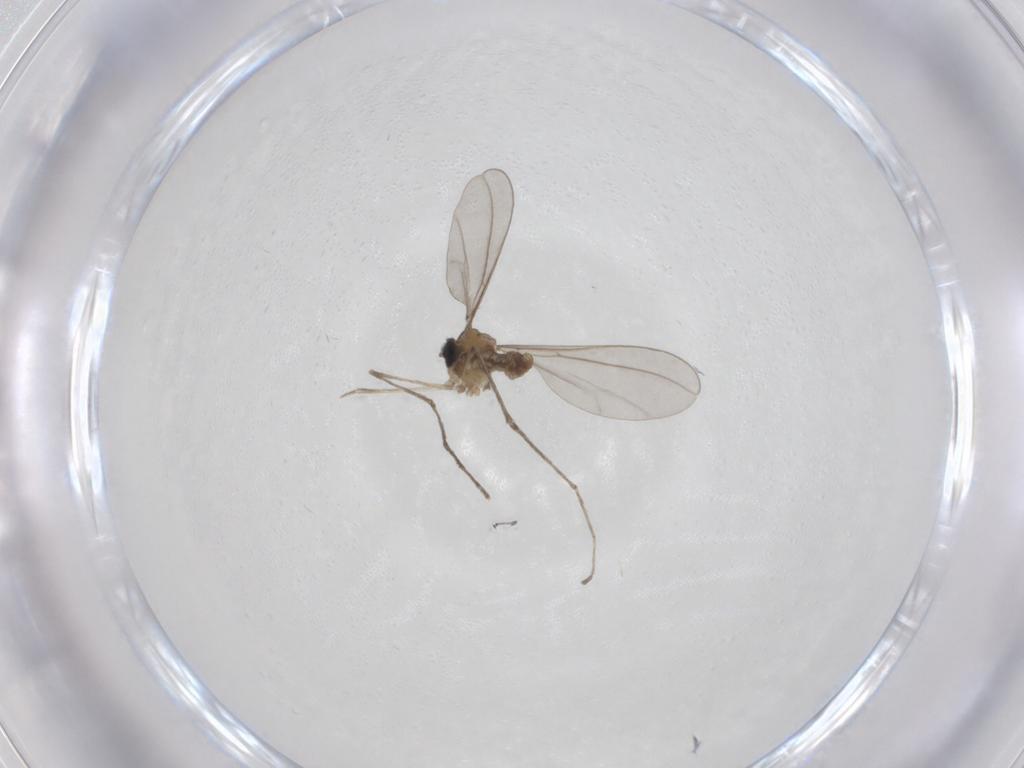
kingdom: Animalia
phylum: Arthropoda
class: Insecta
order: Diptera
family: Cecidomyiidae
